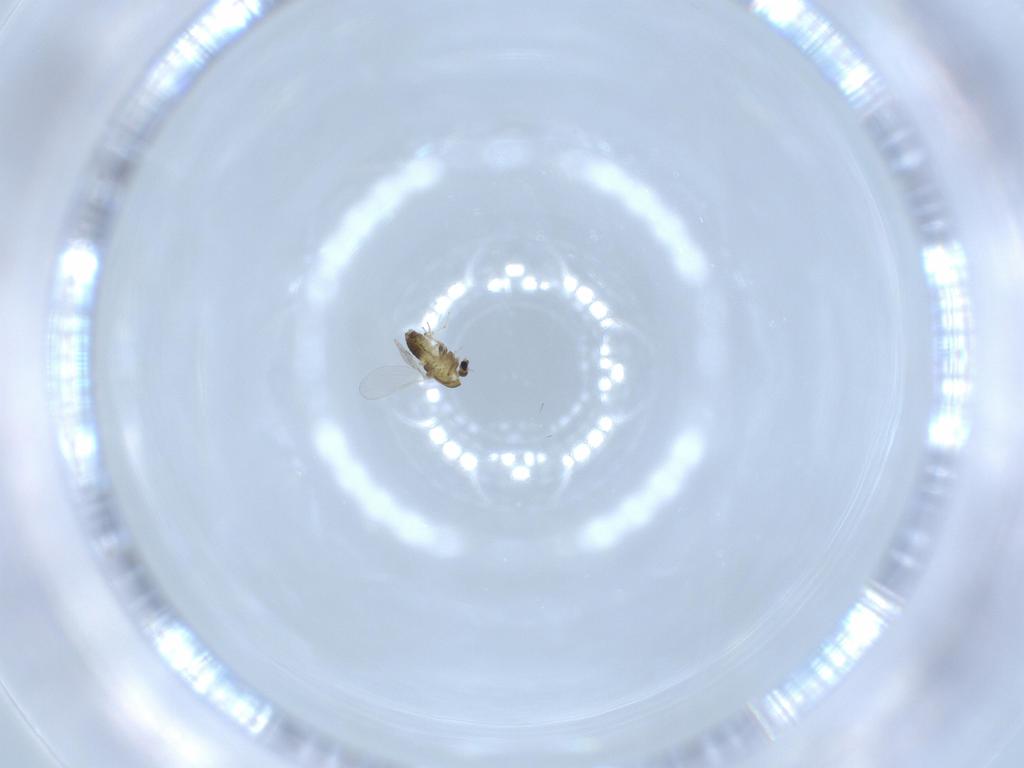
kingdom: Animalia
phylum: Arthropoda
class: Insecta
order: Diptera
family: Chironomidae
